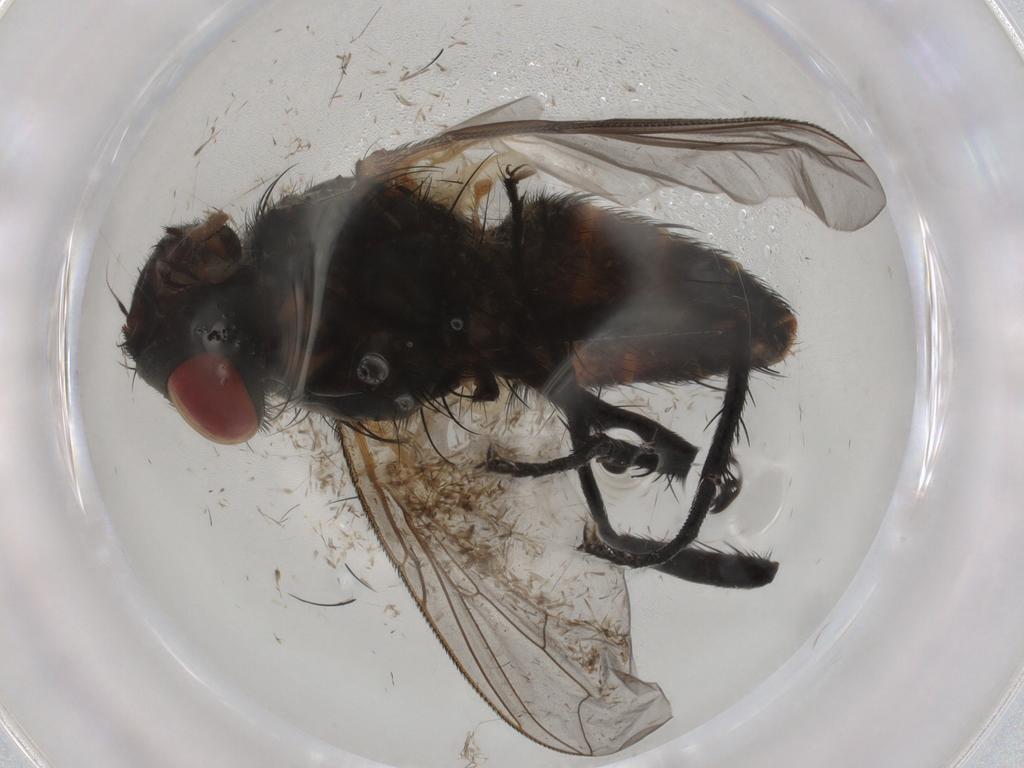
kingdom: Animalia
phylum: Arthropoda
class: Insecta
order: Diptera
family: Sarcophagidae
